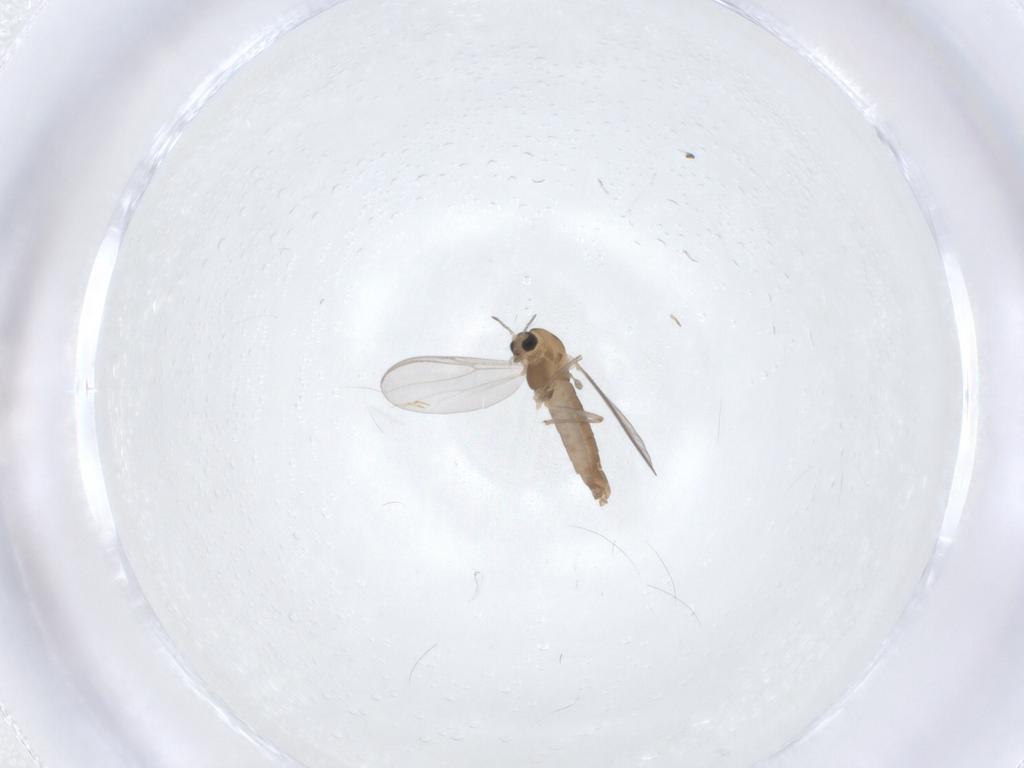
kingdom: Animalia
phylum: Arthropoda
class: Insecta
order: Diptera
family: Chironomidae
